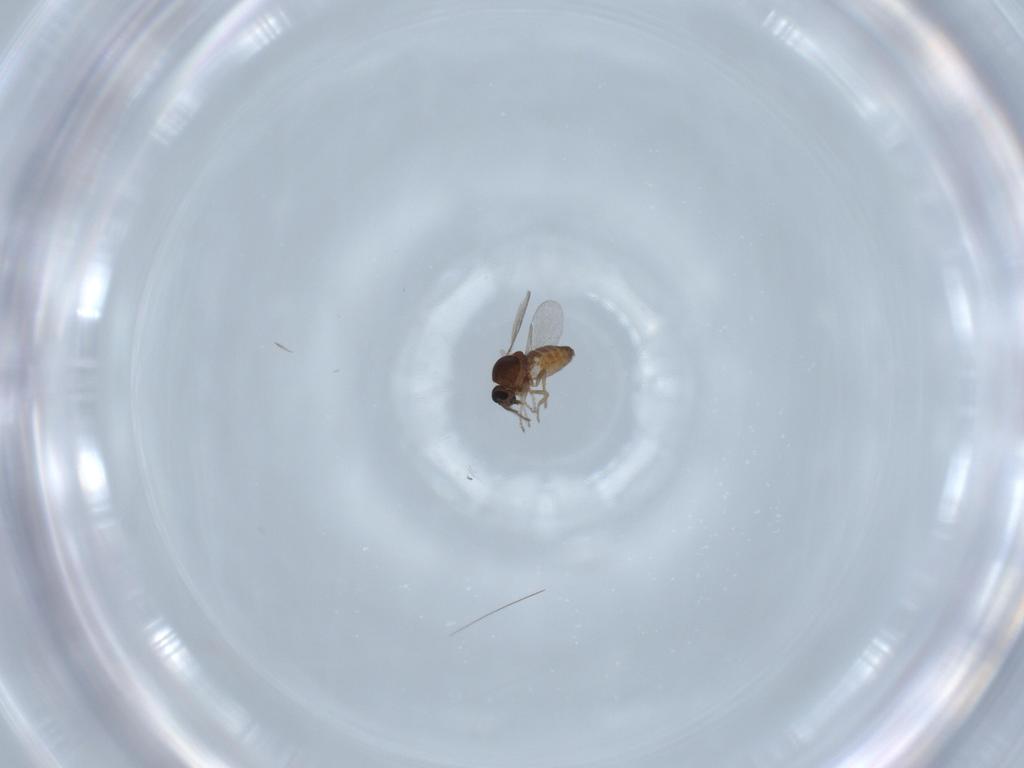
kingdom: Animalia
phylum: Arthropoda
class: Insecta
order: Diptera
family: Ceratopogonidae
